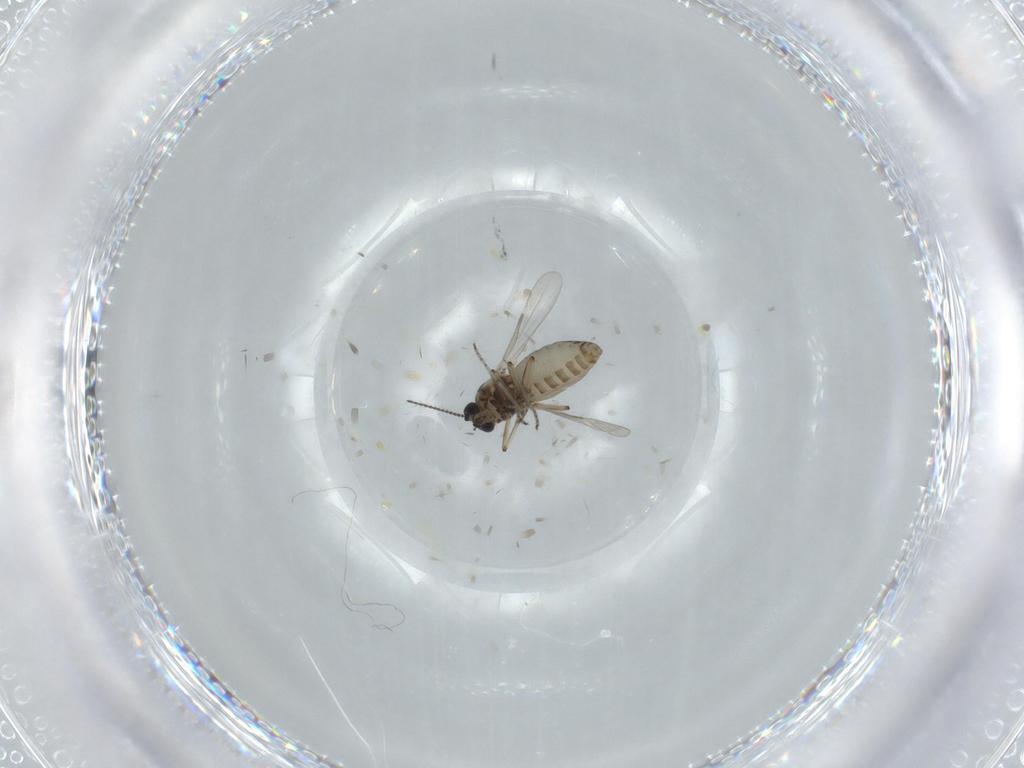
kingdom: Animalia
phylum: Arthropoda
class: Insecta
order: Diptera
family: Ceratopogonidae
